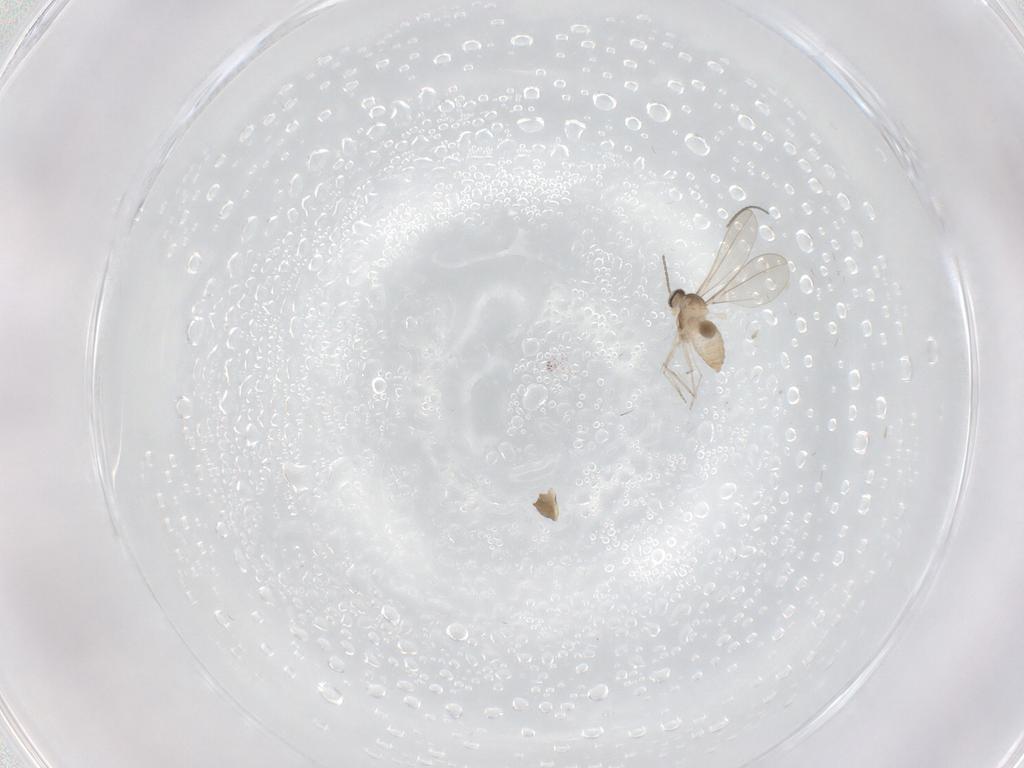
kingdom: Animalia
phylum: Arthropoda
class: Insecta
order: Diptera
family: Cecidomyiidae
